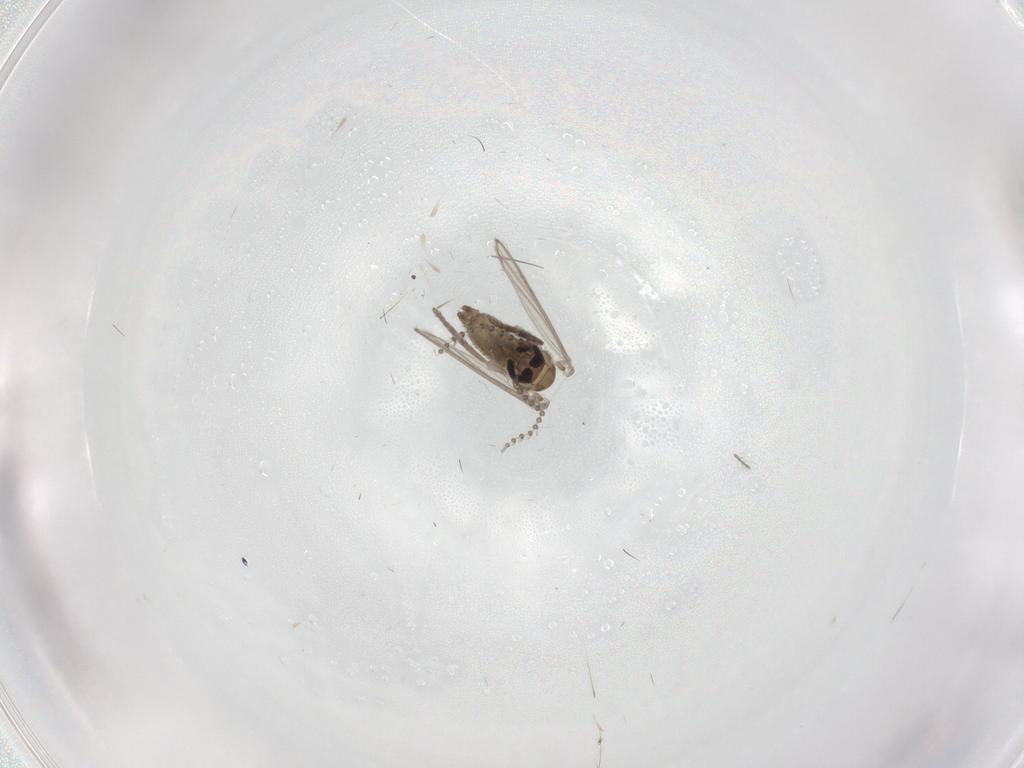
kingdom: Animalia
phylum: Arthropoda
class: Insecta
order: Diptera
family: Psychodidae
